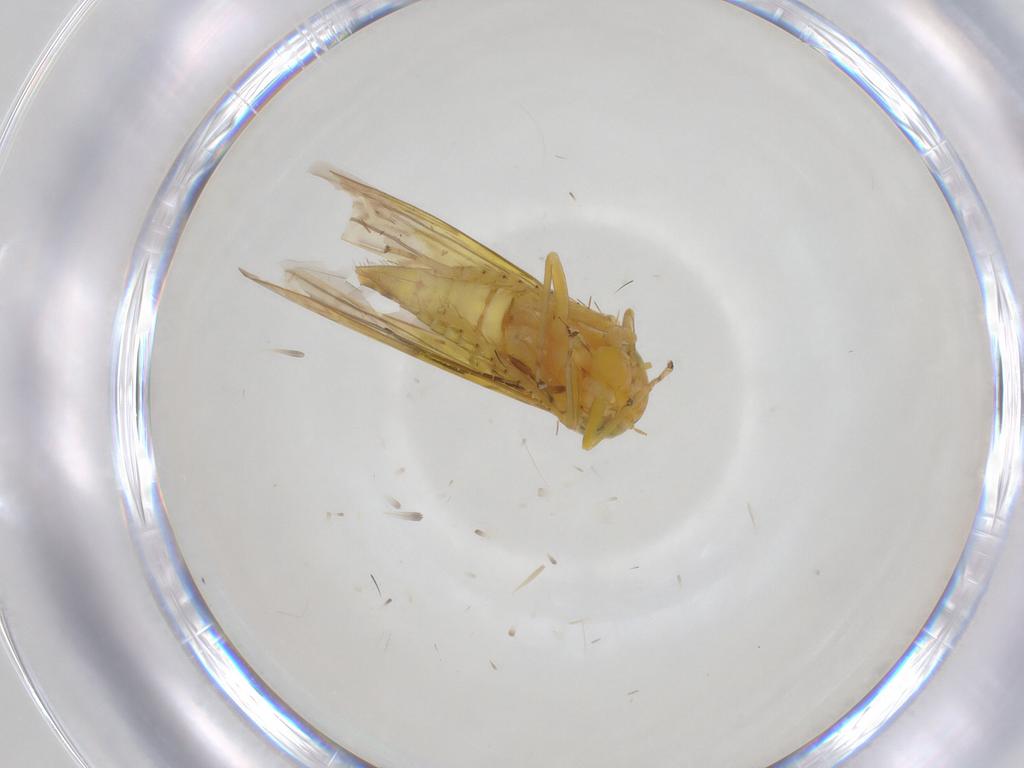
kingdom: Animalia
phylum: Arthropoda
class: Insecta
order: Hemiptera
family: Cicadellidae
